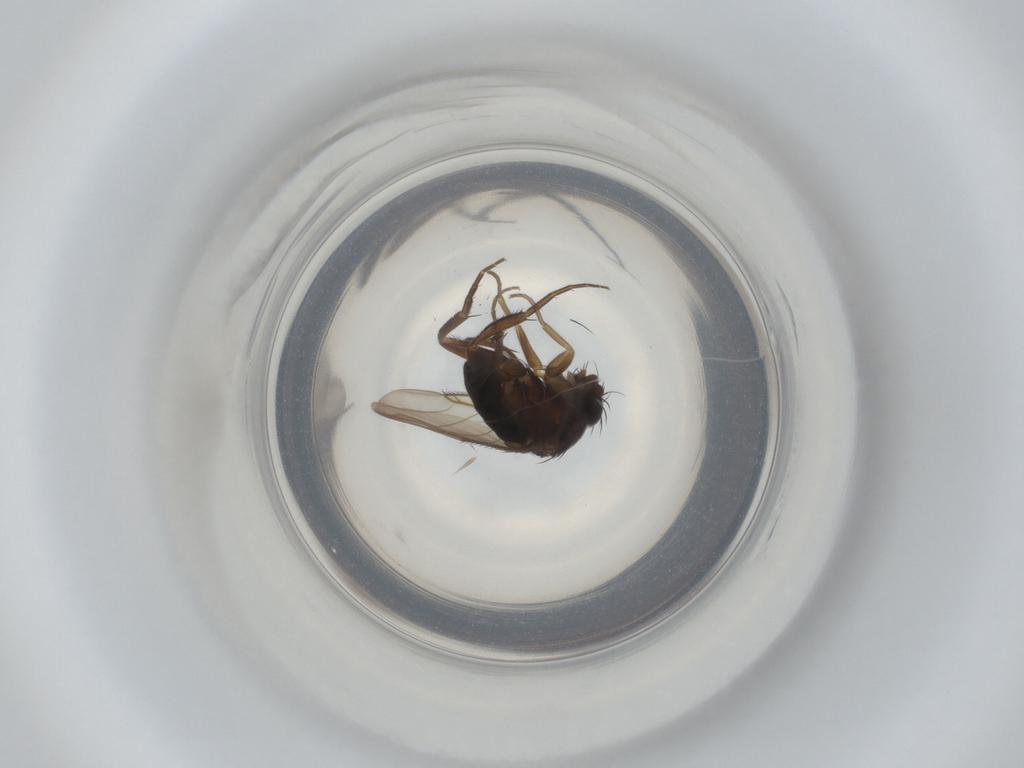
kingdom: Animalia
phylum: Arthropoda
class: Insecta
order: Diptera
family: Phoridae
